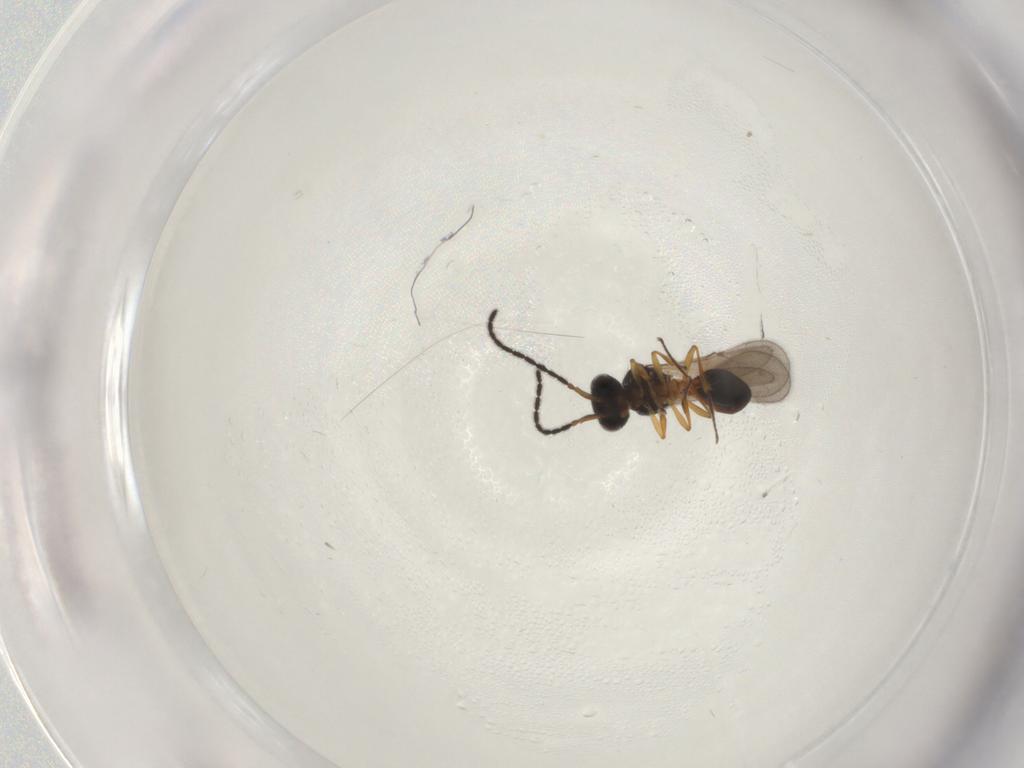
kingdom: Animalia
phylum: Arthropoda
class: Insecta
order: Hymenoptera
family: Scelionidae
